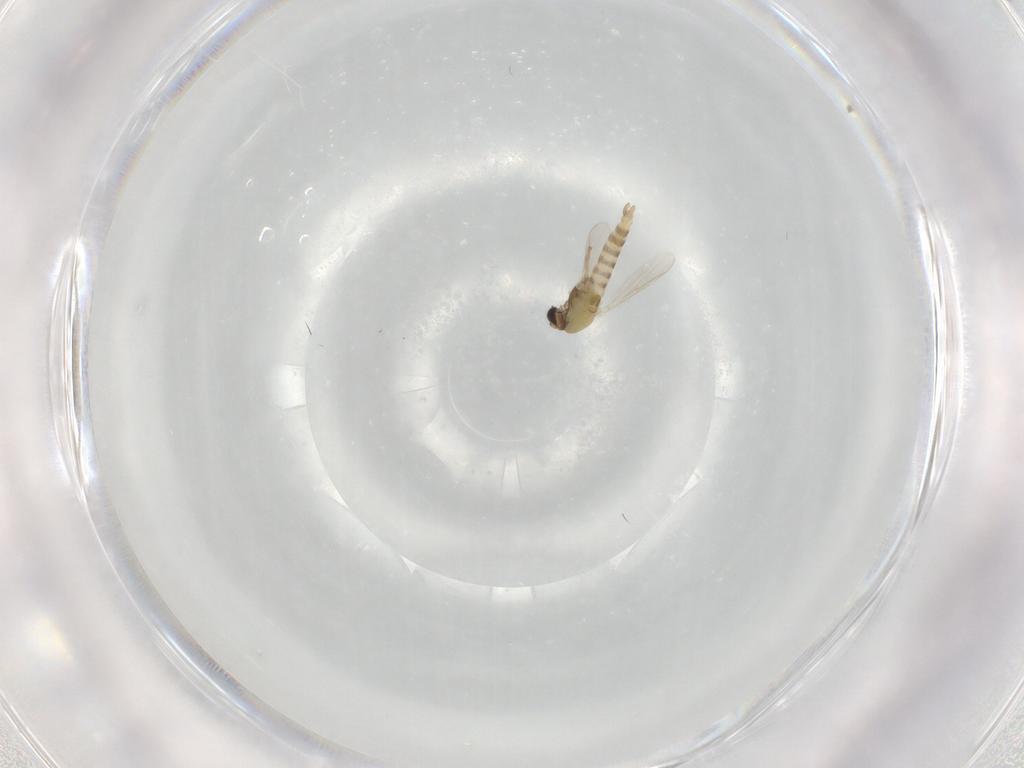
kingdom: Animalia
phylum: Arthropoda
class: Insecta
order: Diptera
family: Chironomidae
